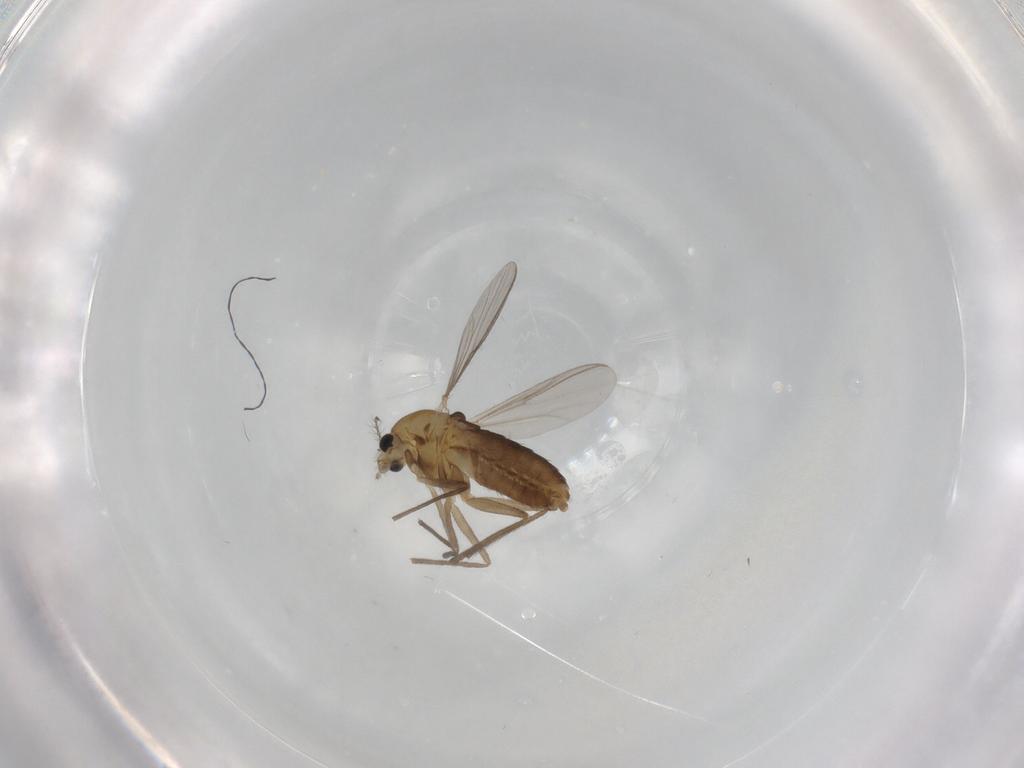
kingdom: Animalia
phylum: Arthropoda
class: Insecta
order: Diptera
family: Chironomidae
